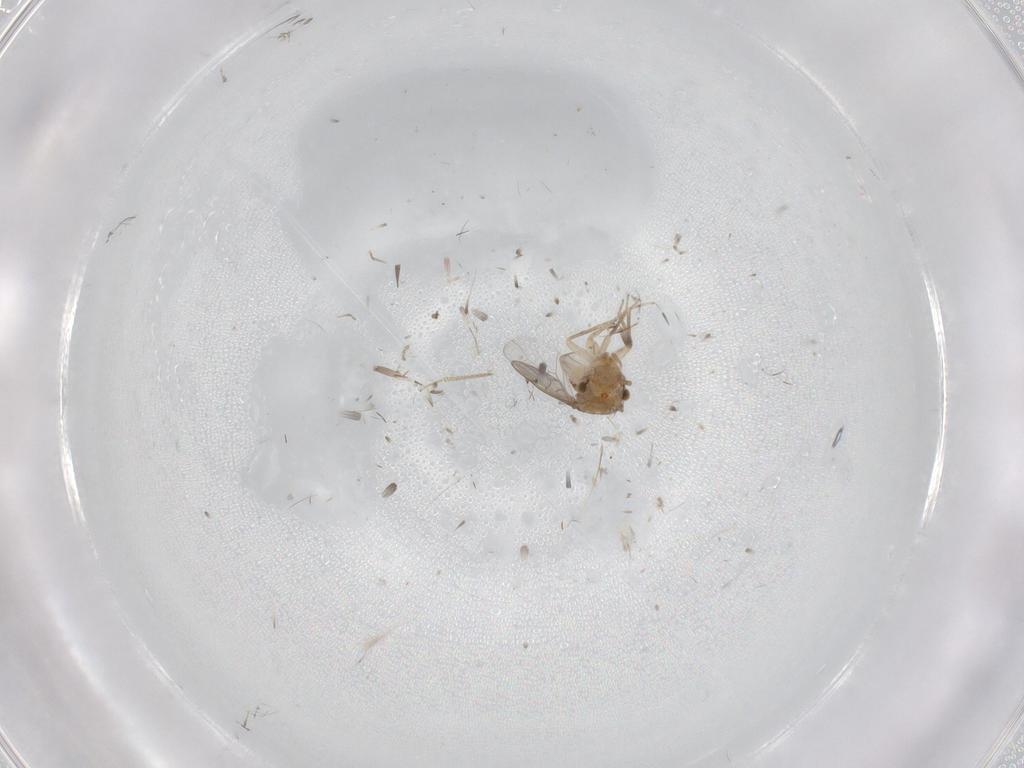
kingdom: Animalia
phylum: Arthropoda
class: Insecta
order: Psocodea
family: Ectopsocidae
